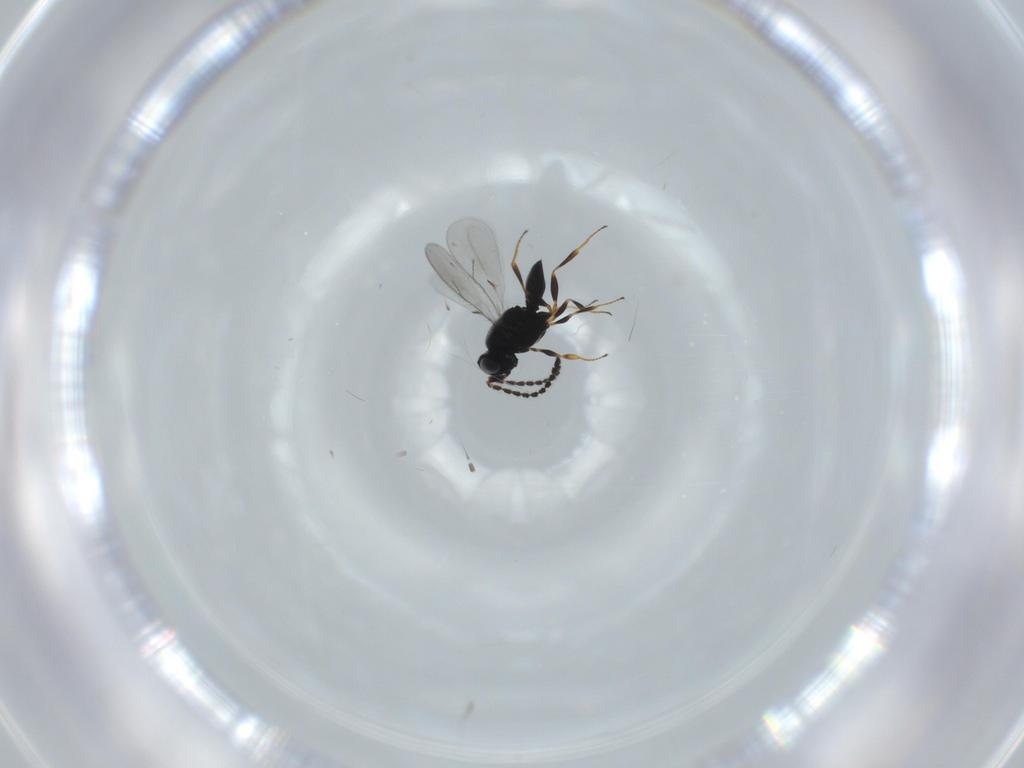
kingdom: Animalia
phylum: Arthropoda
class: Insecta
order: Hymenoptera
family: Scelionidae
